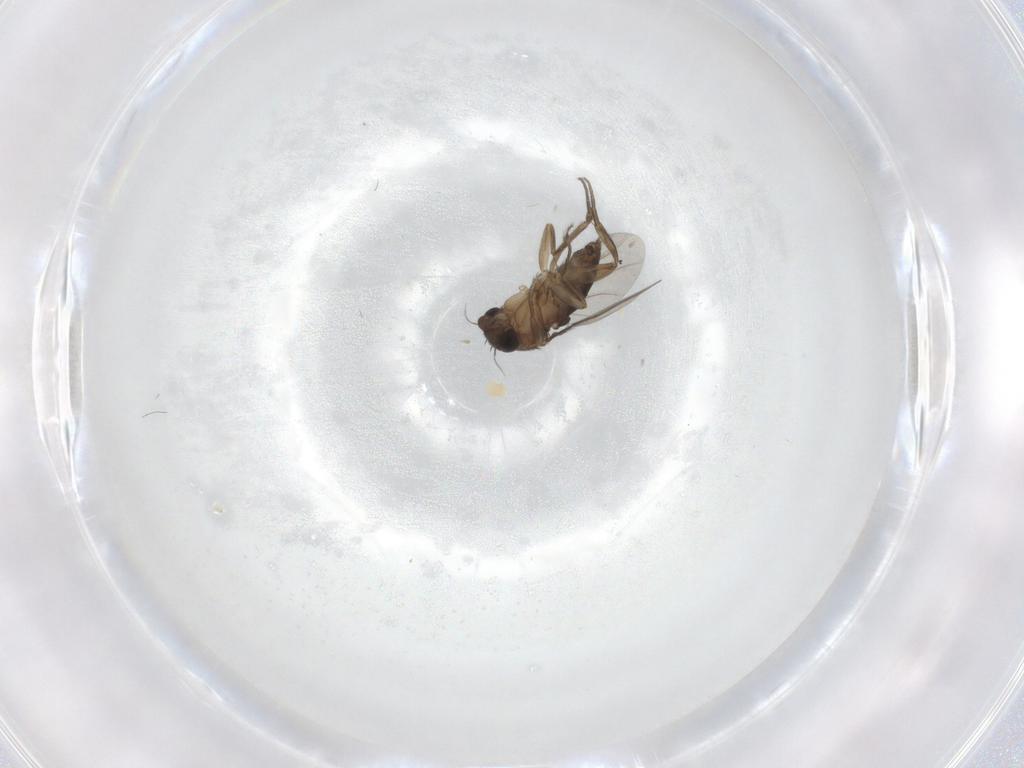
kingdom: Animalia
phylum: Arthropoda
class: Insecta
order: Diptera
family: Phoridae
